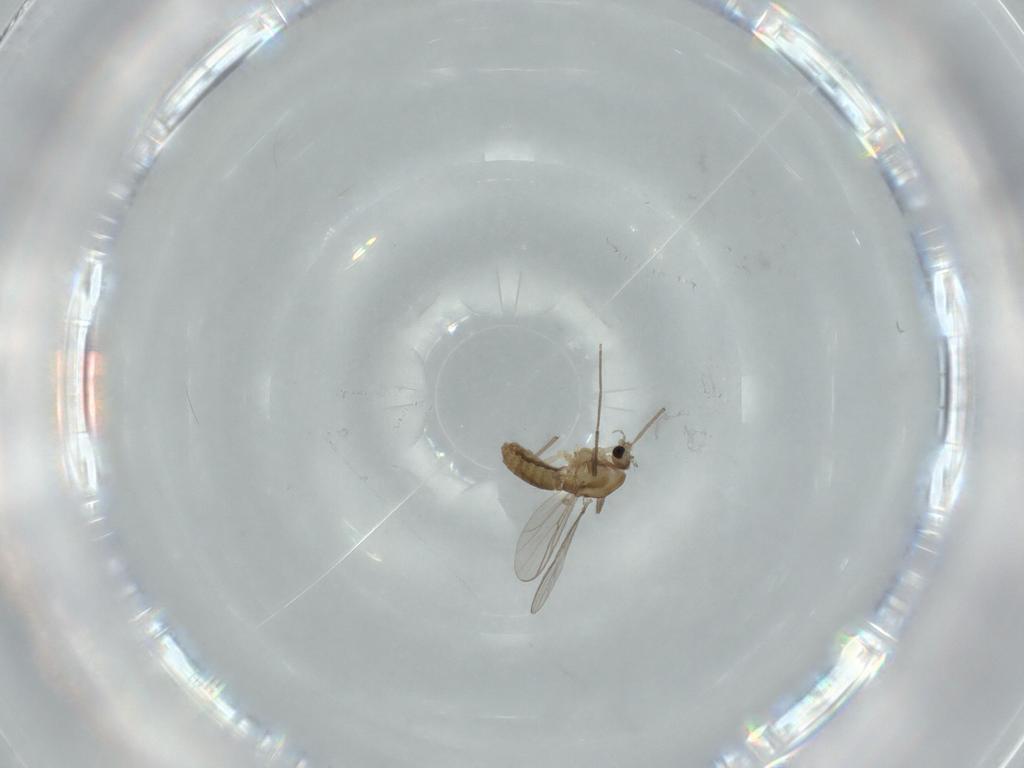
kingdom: Animalia
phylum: Arthropoda
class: Insecta
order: Diptera
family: Chironomidae
